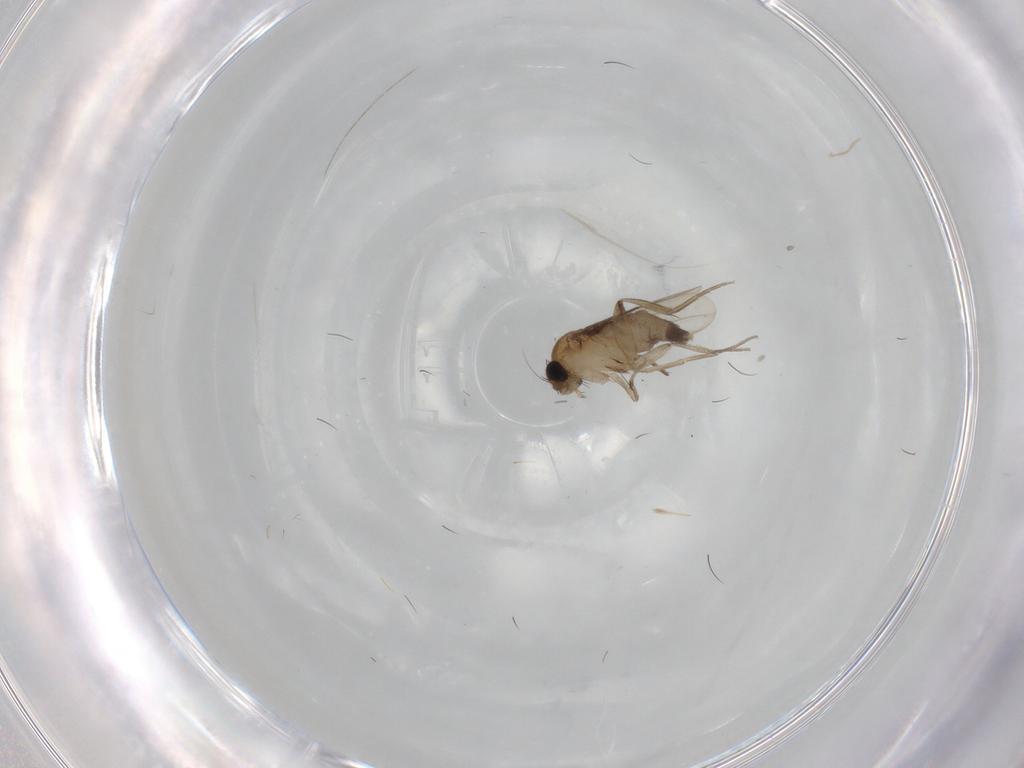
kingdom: Animalia
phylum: Arthropoda
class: Insecta
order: Diptera
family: Phoridae
